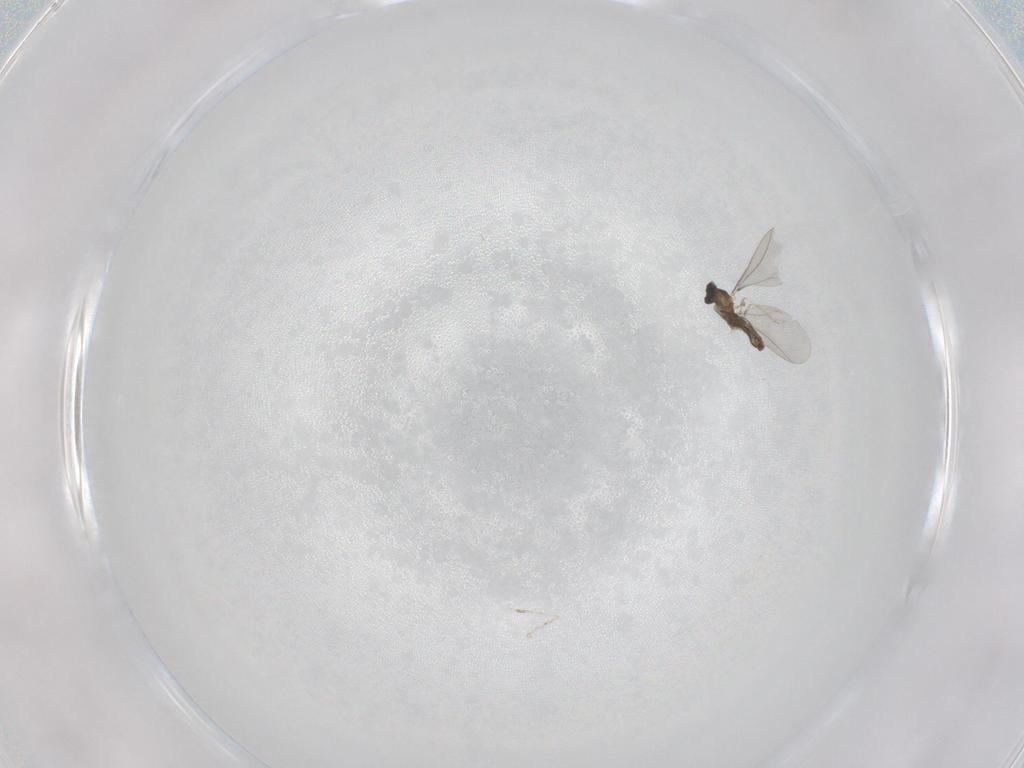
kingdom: Animalia
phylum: Arthropoda
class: Insecta
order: Diptera
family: Cecidomyiidae
